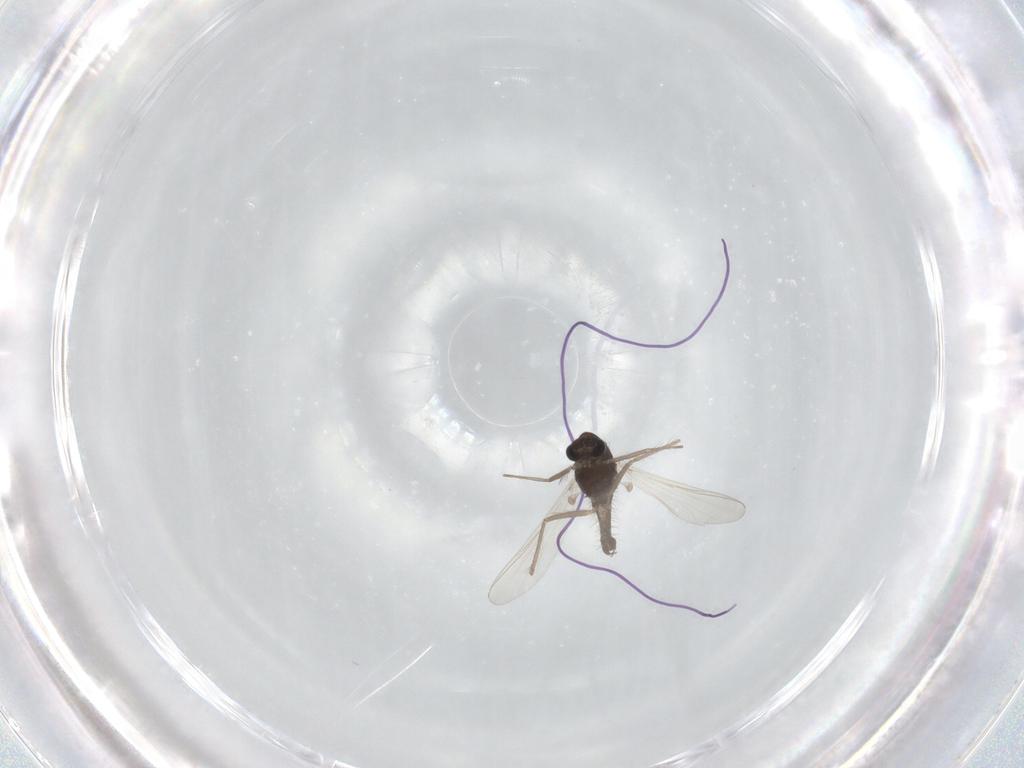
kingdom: Animalia
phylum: Arthropoda
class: Insecta
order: Diptera
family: Chironomidae
